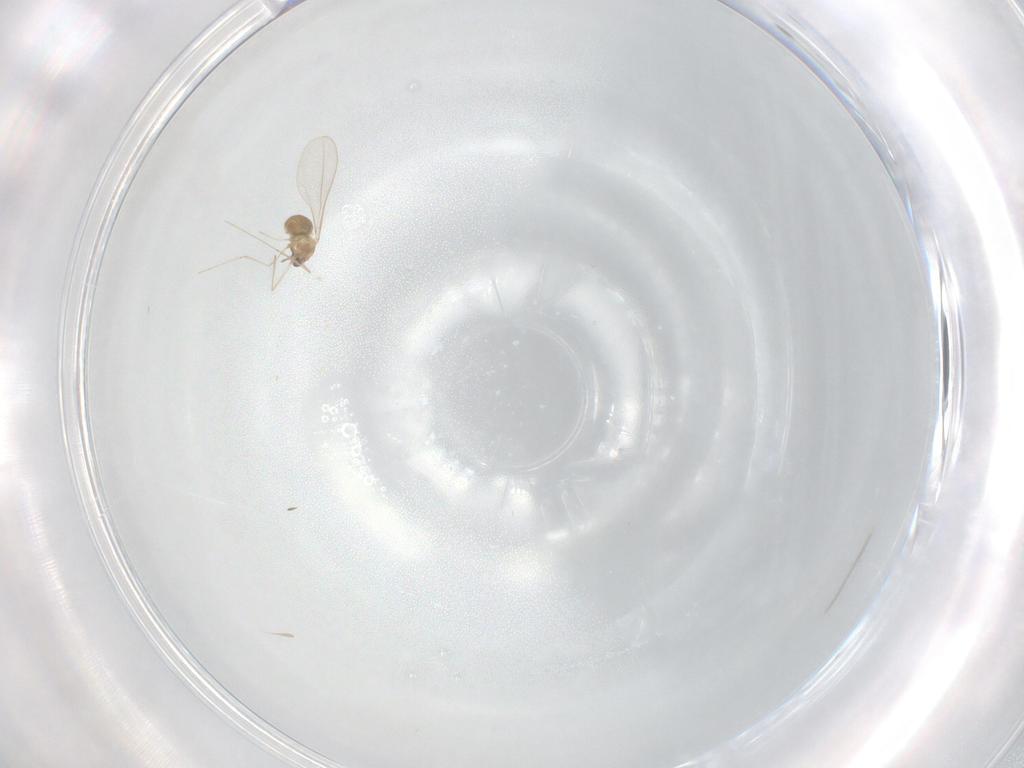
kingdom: Animalia
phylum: Arthropoda
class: Insecta
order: Diptera
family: Cecidomyiidae
